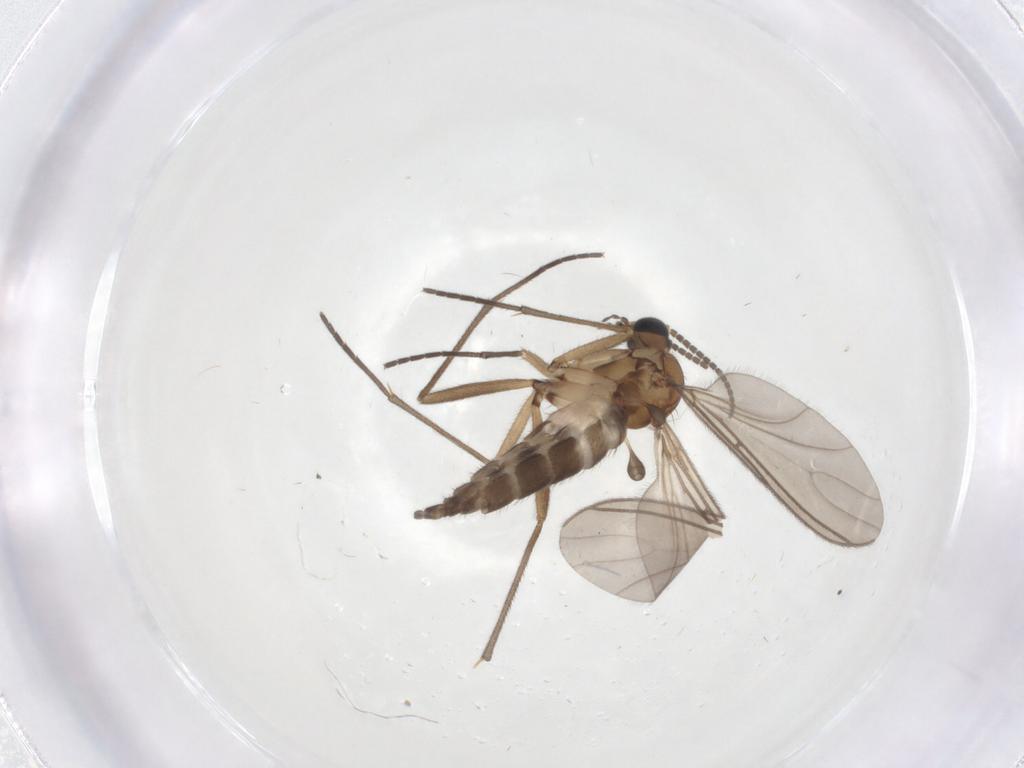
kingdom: Animalia
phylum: Arthropoda
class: Insecta
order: Diptera
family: Sciaridae
